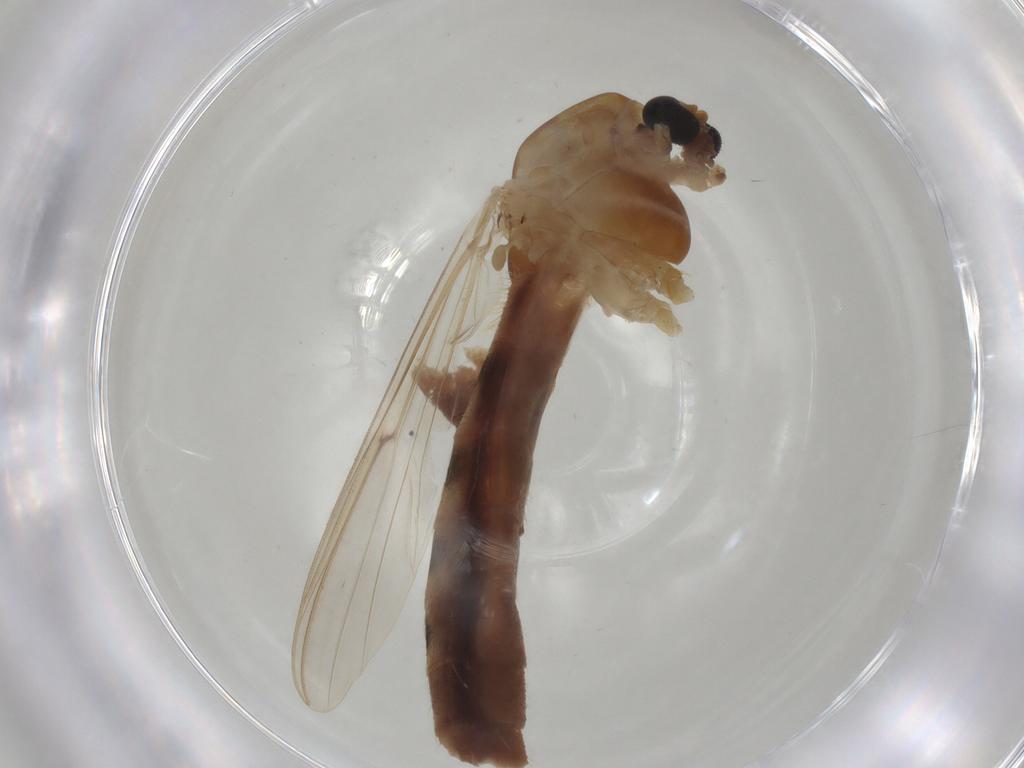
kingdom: Animalia
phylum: Arthropoda
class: Insecta
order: Diptera
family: Chironomidae
